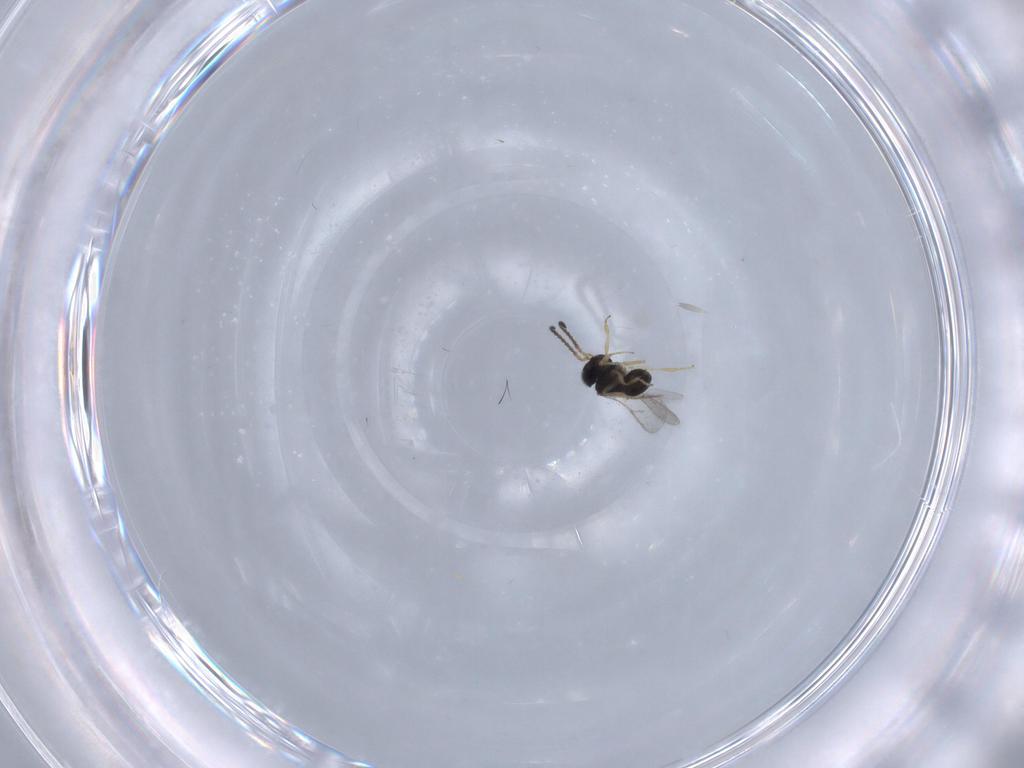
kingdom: Animalia
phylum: Arthropoda
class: Insecta
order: Hymenoptera
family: Scelionidae
